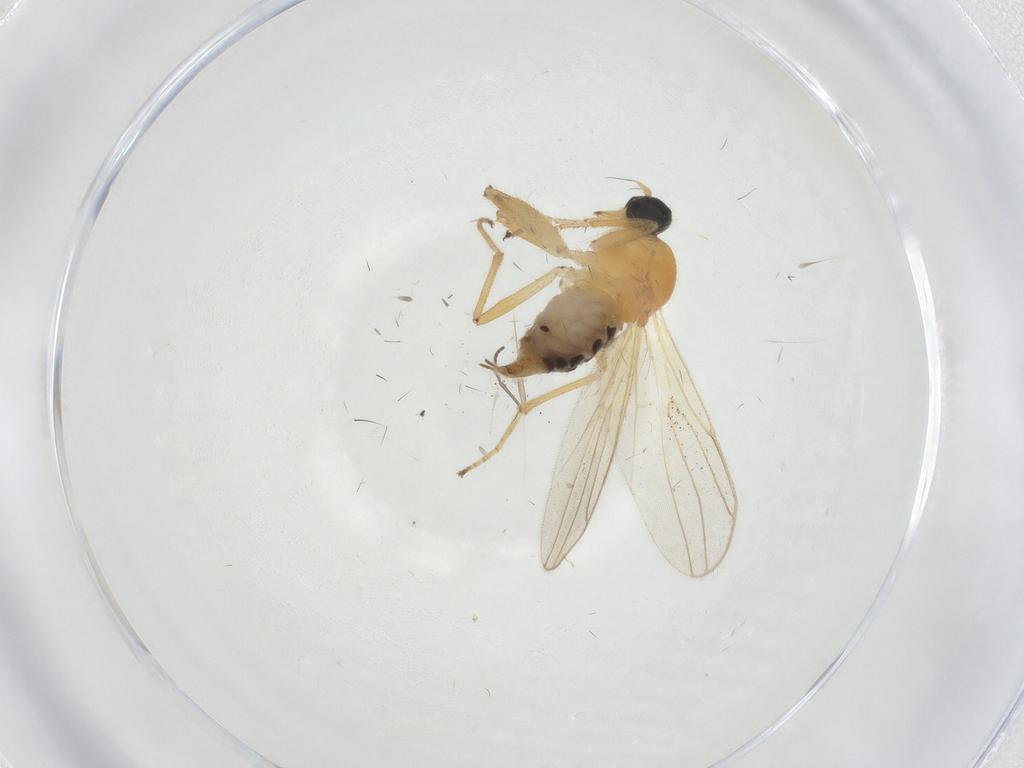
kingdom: Animalia
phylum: Arthropoda
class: Insecta
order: Diptera
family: Hybotidae
